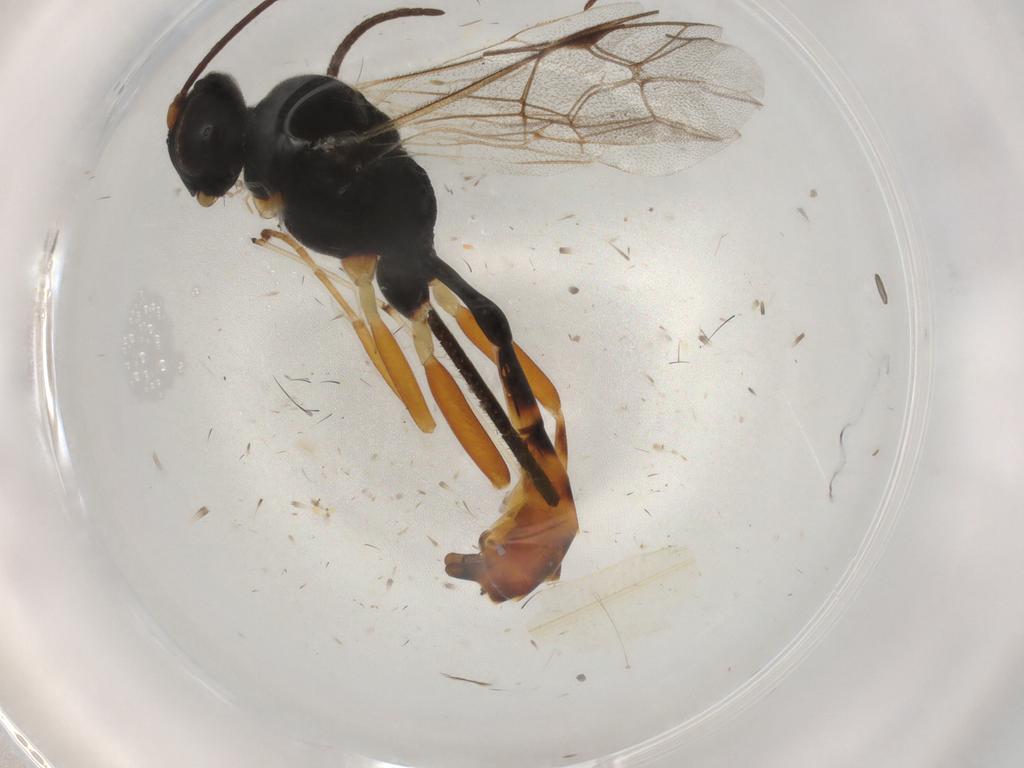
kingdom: Animalia
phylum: Arthropoda
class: Insecta
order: Hymenoptera
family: Ichneumonidae
